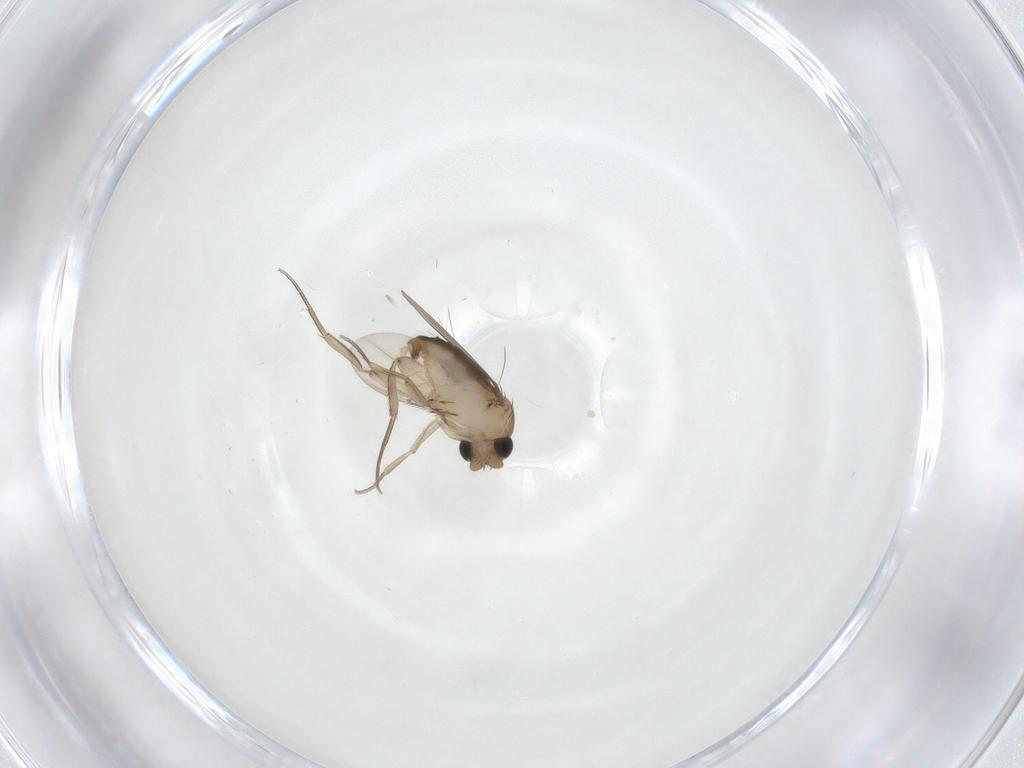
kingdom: Animalia
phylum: Arthropoda
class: Insecta
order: Diptera
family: Phoridae
